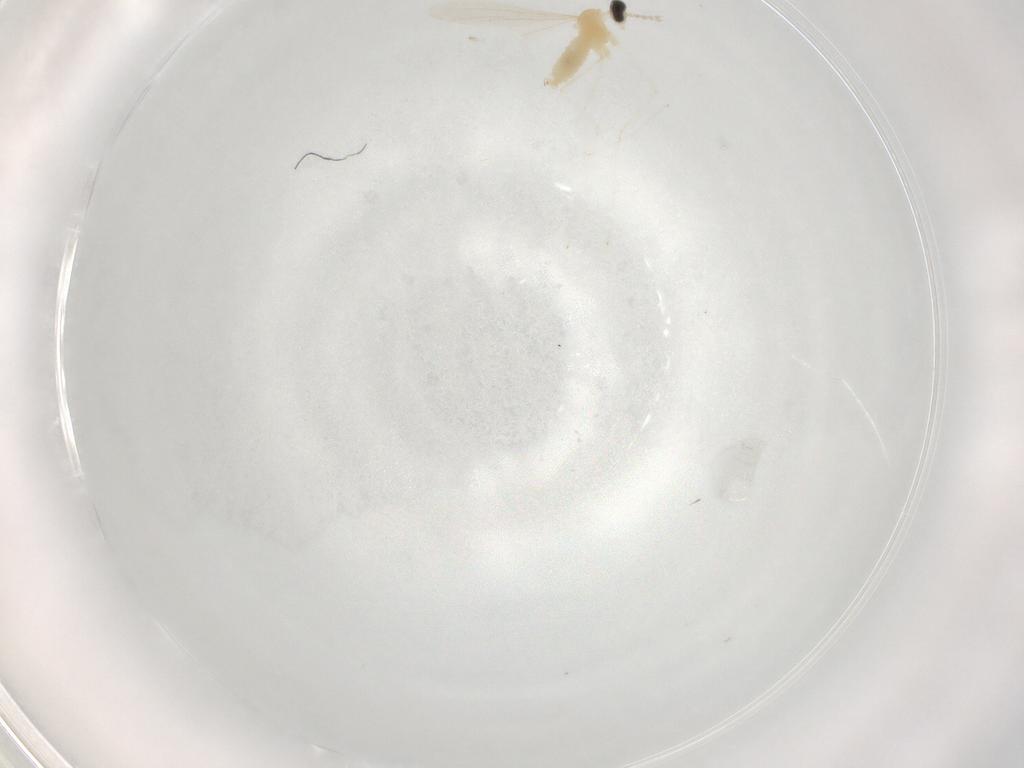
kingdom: Animalia
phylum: Arthropoda
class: Insecta
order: Diptera
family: Cecidomyiidae
